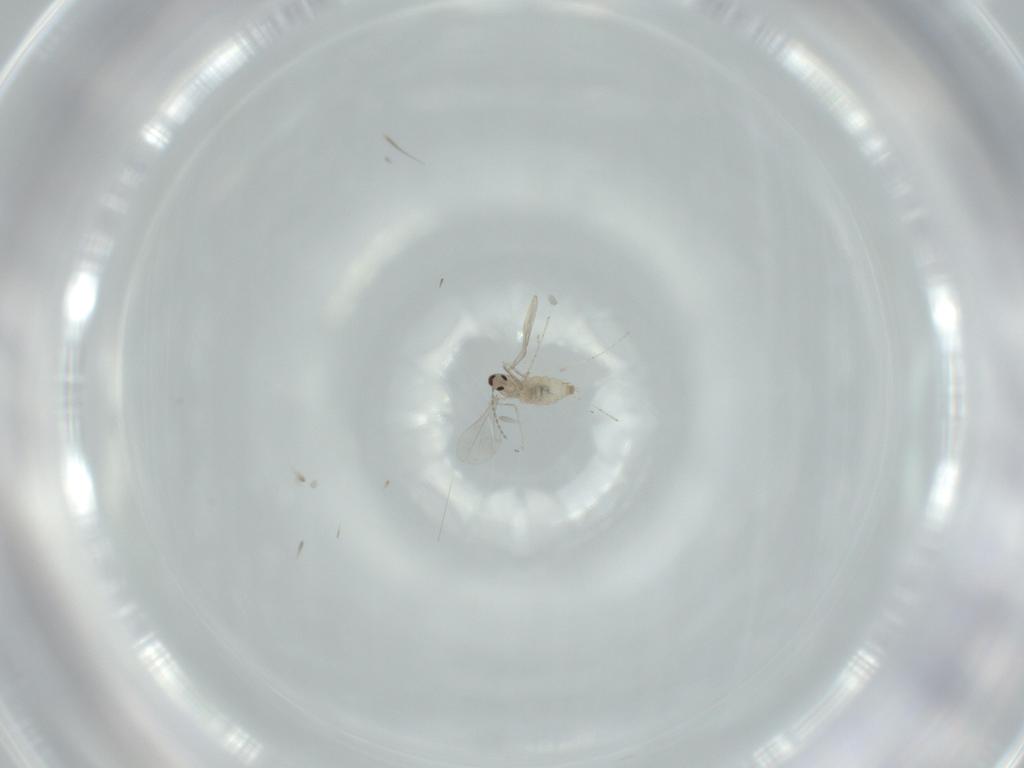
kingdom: Animalia
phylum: Arthropoda
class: Insecta
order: Diptera
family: Hybotidae
